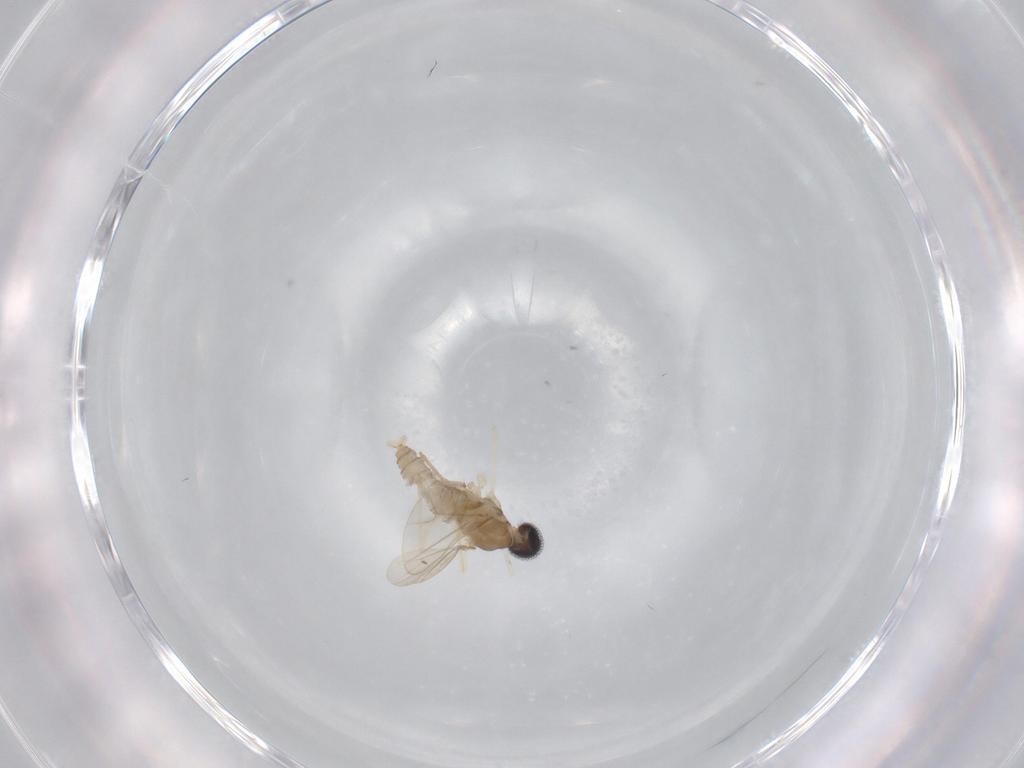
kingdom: Animalia
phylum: Arthropoda
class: Insecta
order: Diptera
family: Cecidomyiidae
